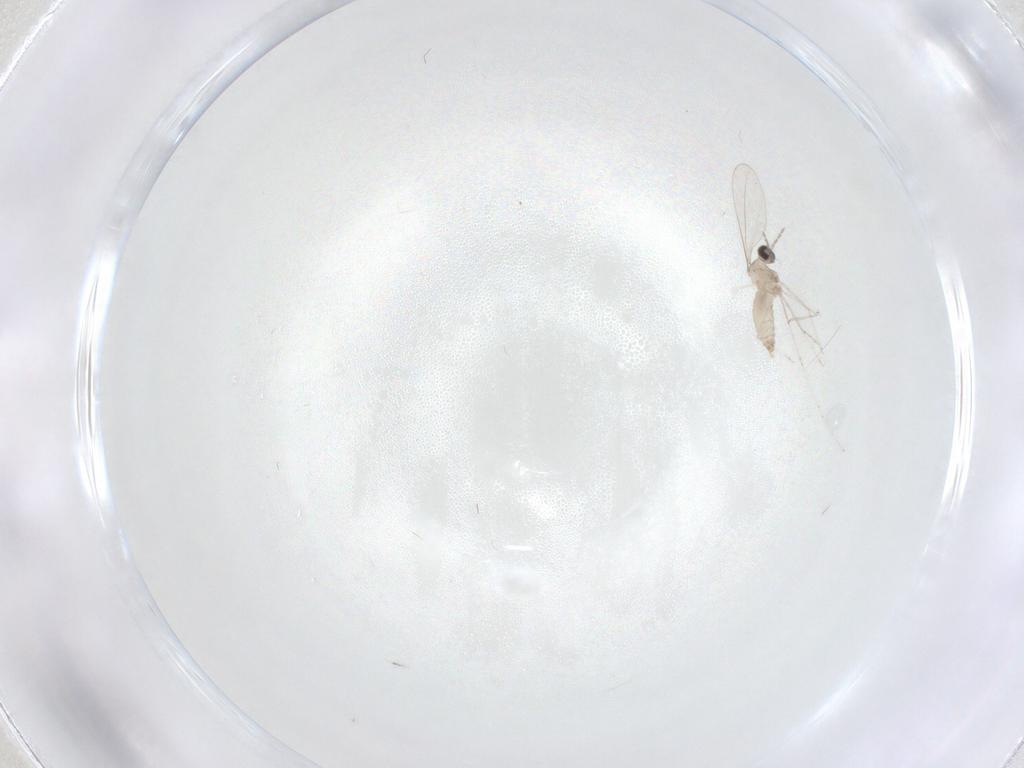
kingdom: Animalia
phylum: Arthropoda
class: Insecta
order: Diptera
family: Cecidomyiidae
